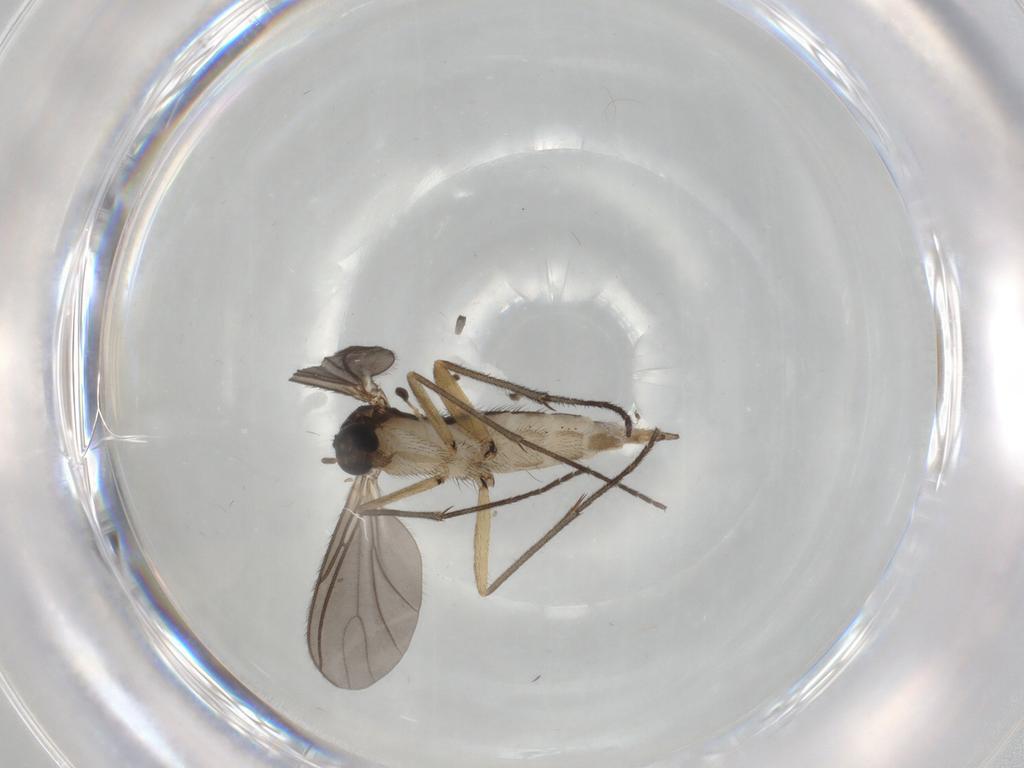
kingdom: Animalia
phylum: Arthropoda
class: Insecta
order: Diptera
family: Sciaridae
